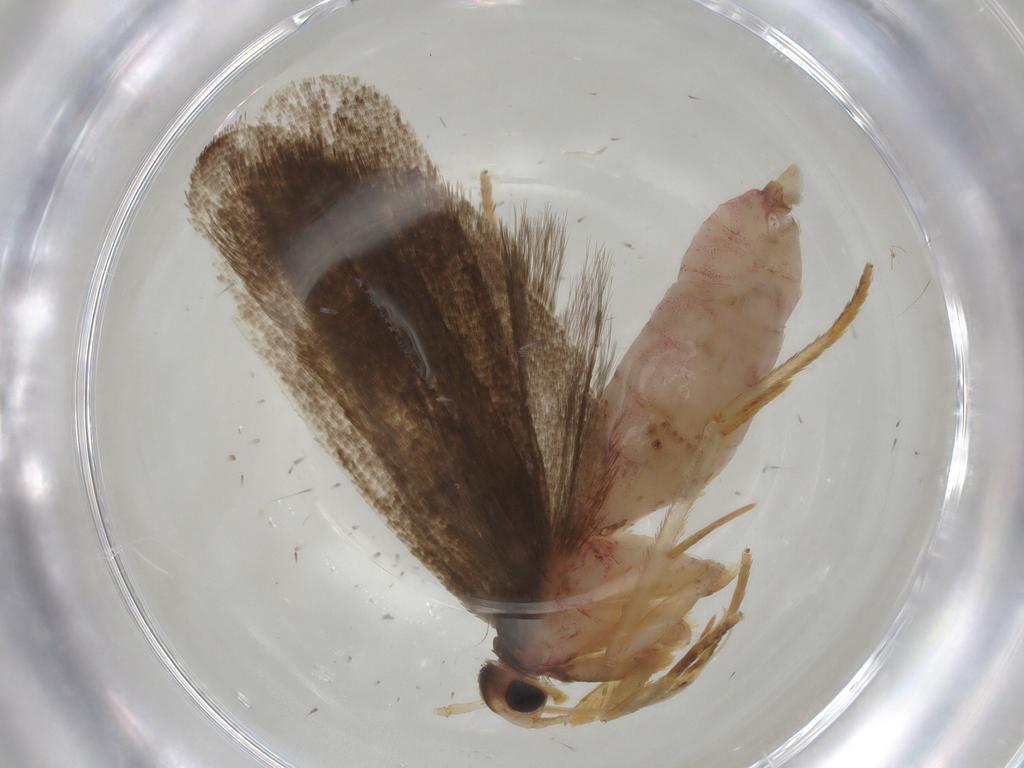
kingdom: Animalia
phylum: Arthropoda
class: Insecta
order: Lepidoptera
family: Autostichidae
